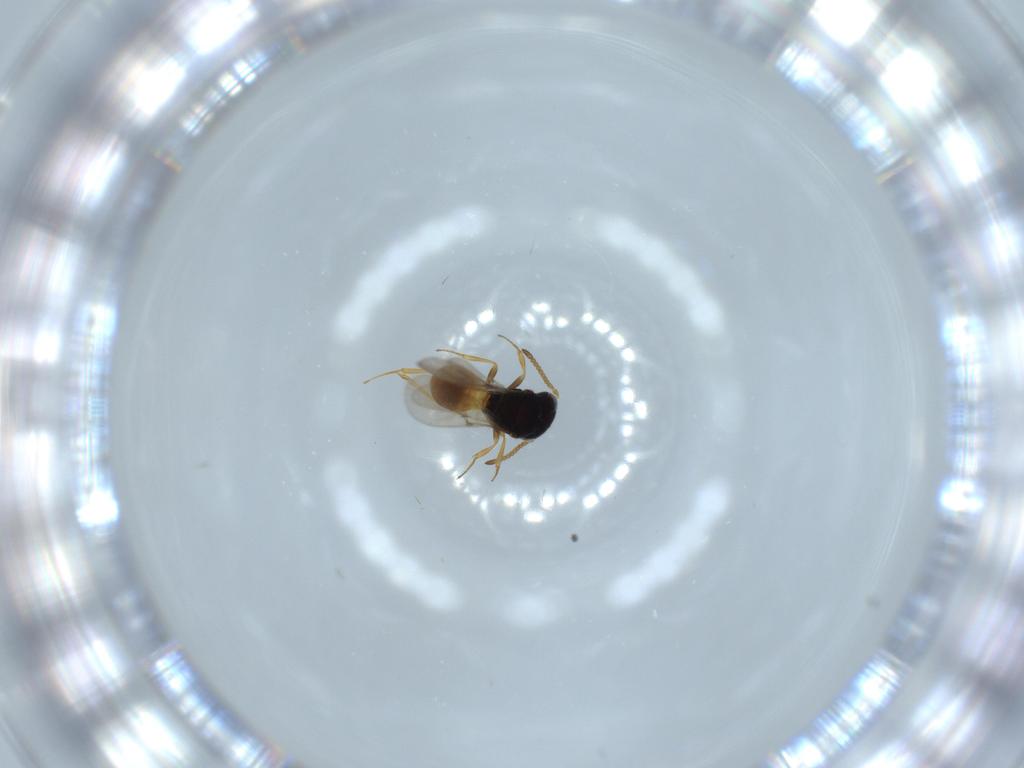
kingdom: Animalia
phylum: Arthropoda
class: Insecta
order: Hymenoptera
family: Scelionidae
